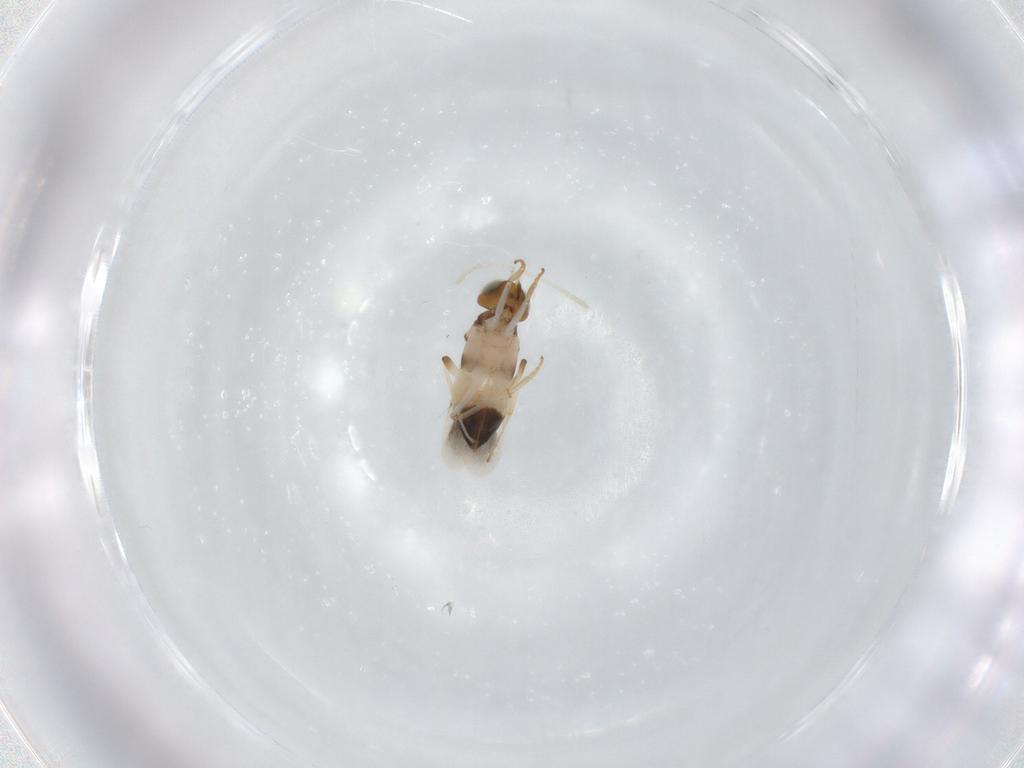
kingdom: Animalia
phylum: Arthropoda
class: Insecta
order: Hymenoptera
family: Encyrtidae
